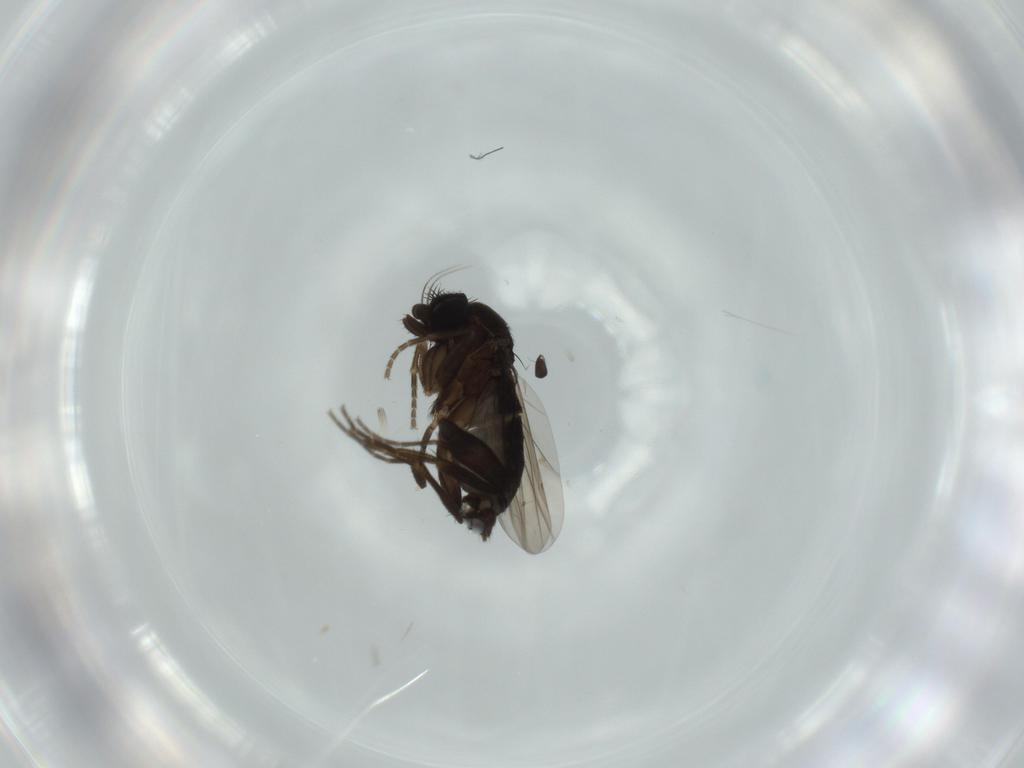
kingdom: Animalia
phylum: Arthropoda
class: Insecta
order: Diptera
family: Phoridae
